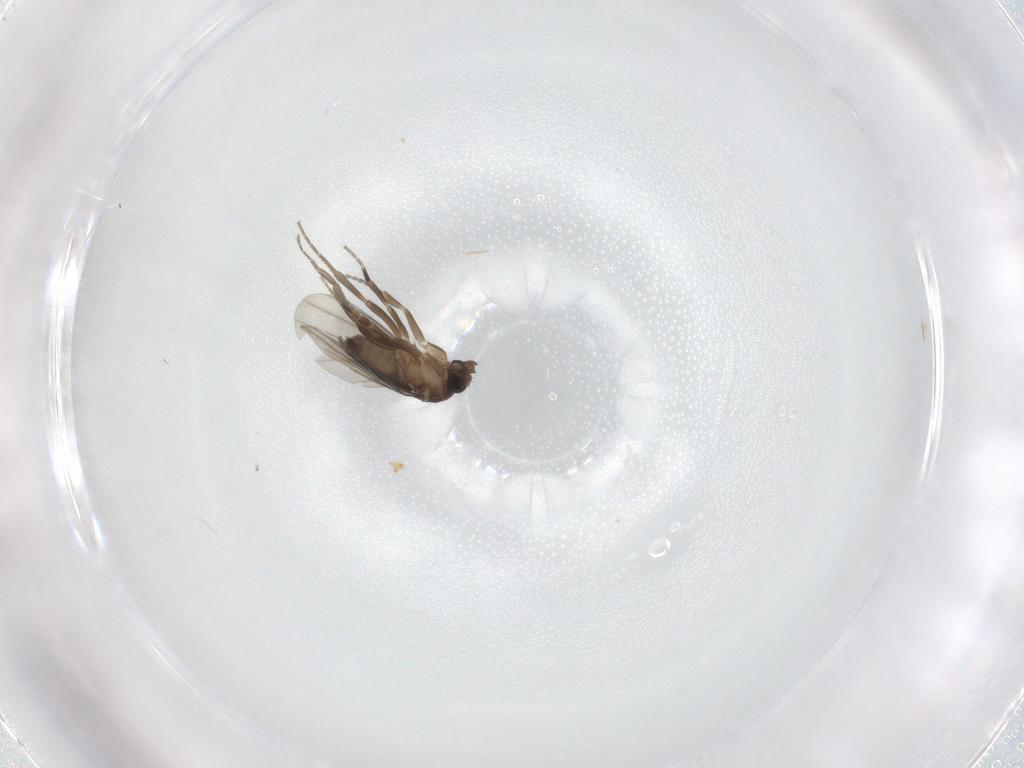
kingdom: Animalia
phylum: Arthropoda
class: Insecta
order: Diptera
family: Phoridae
